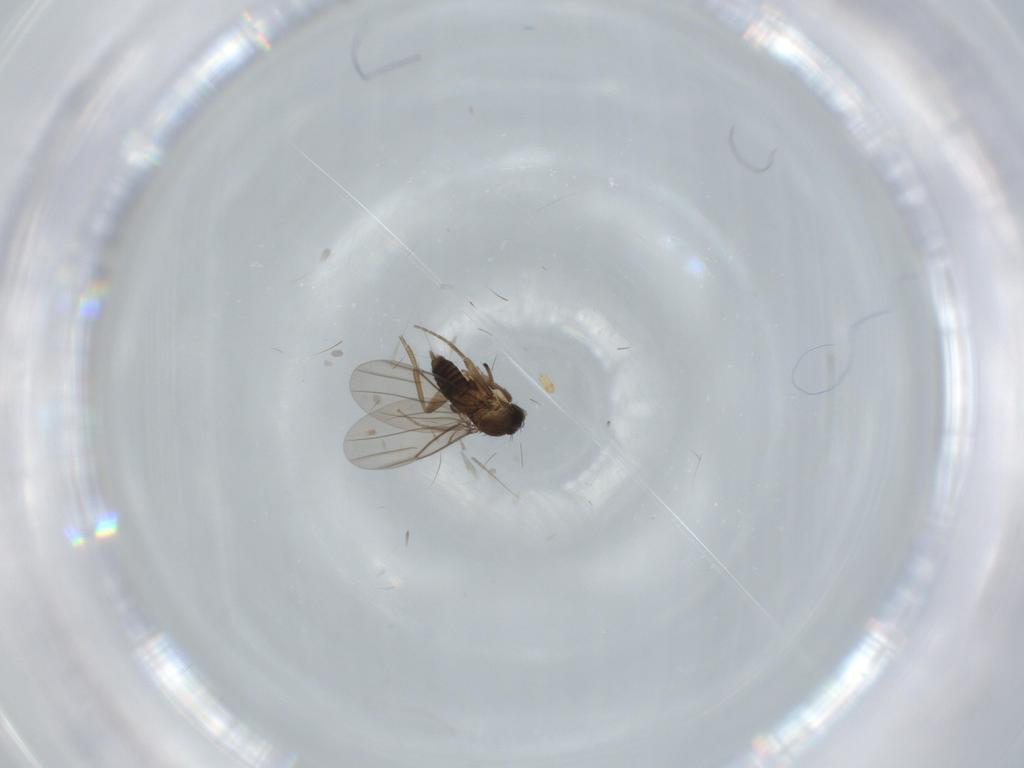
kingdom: Animalia
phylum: Arthropoda
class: Insecta
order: Diptera
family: Phoridae
